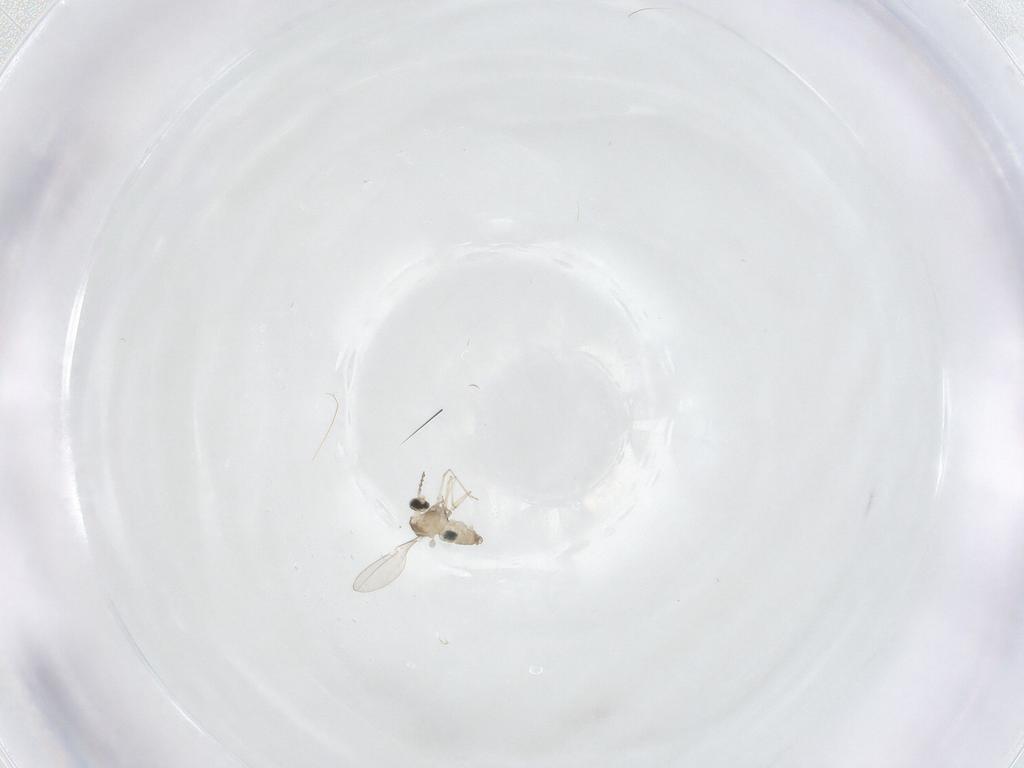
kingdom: Animalia
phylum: Arthropoda
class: Insecta
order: Diptera
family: Cecidomyiidae
